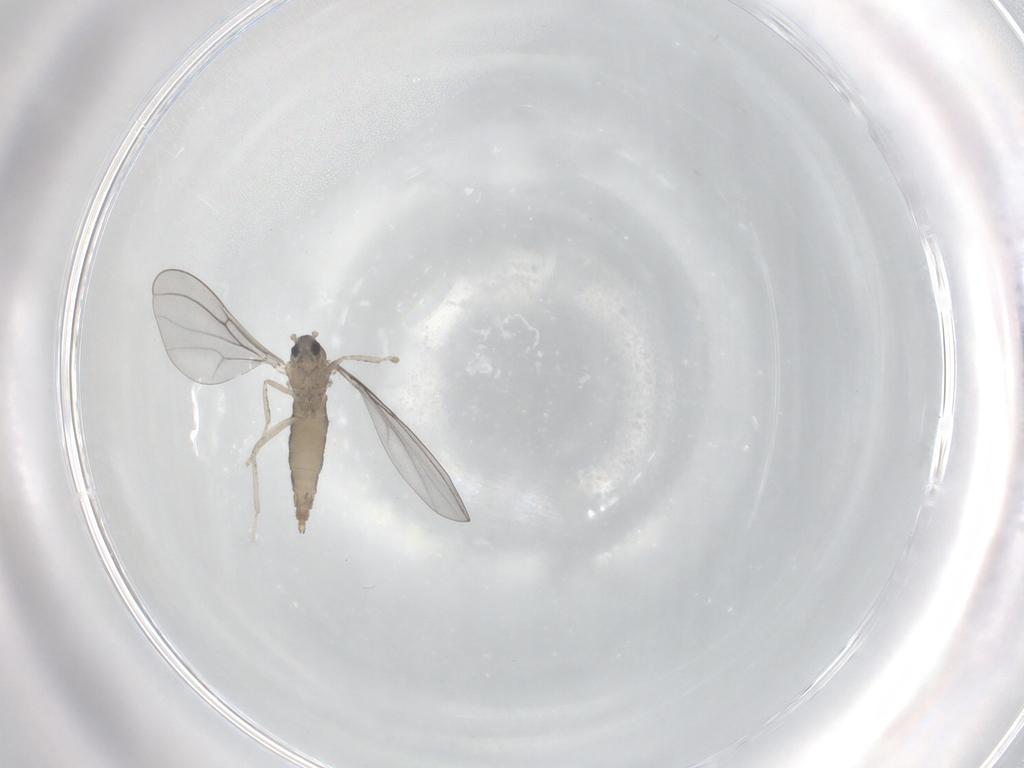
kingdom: Animalia
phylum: Arthropoda
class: Insecta
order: Diptera
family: Cecidomyiidae
